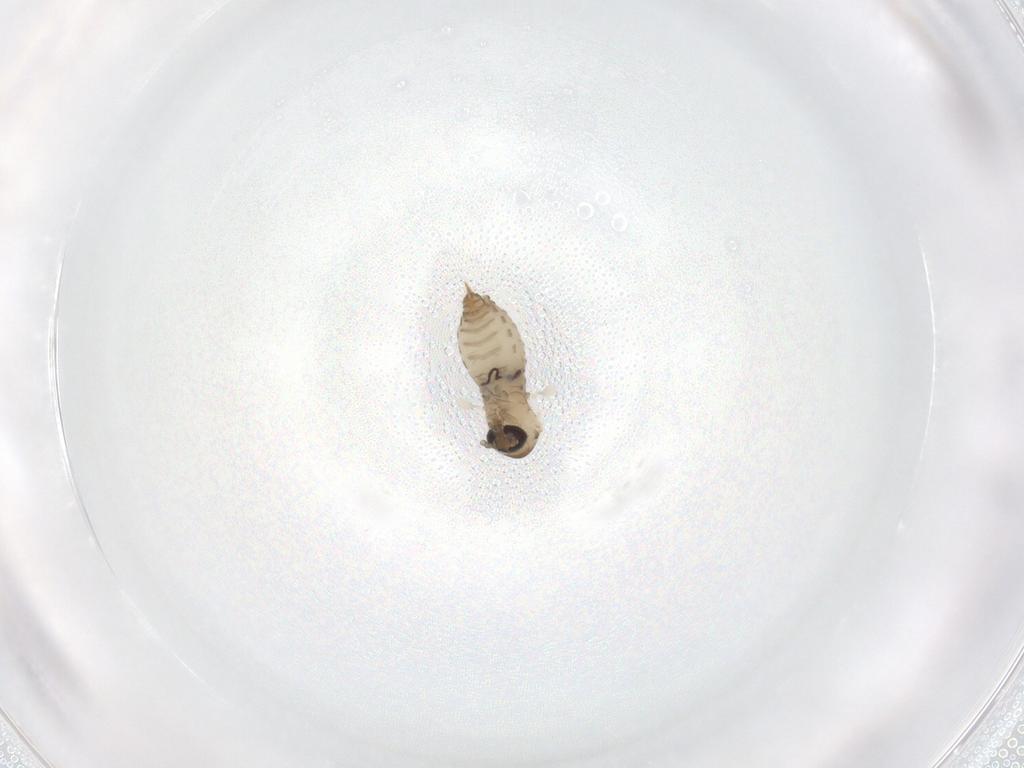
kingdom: Animalia
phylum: Arthropoda
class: Insecta
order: Diptera
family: Psychodidae
